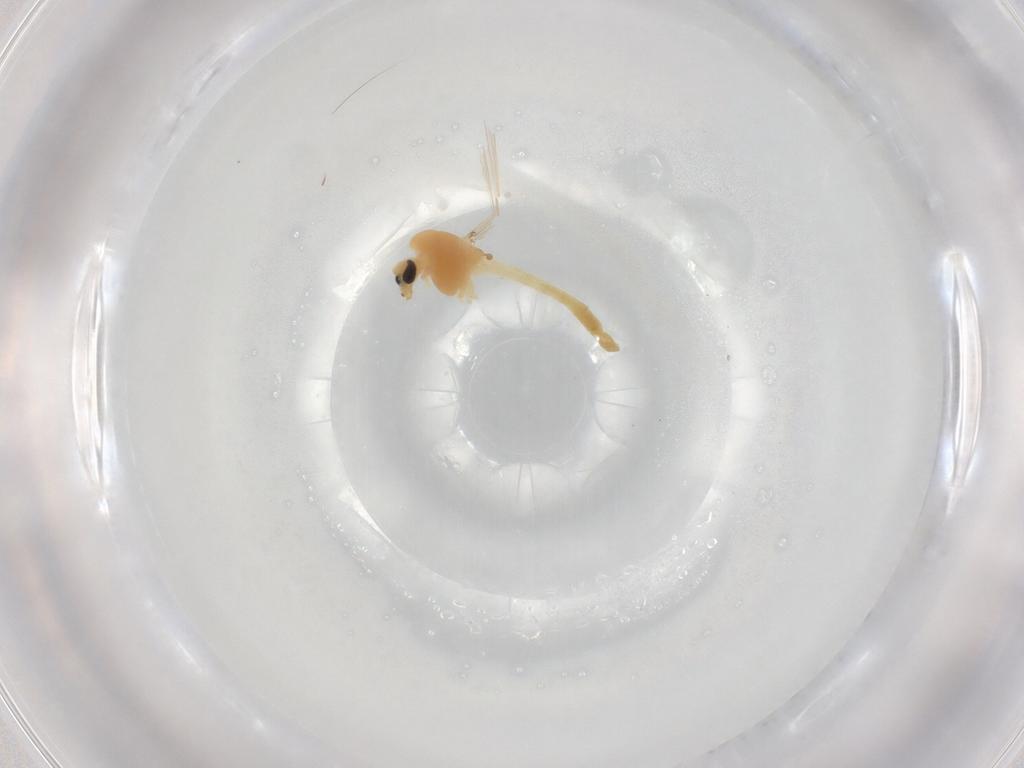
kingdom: Animalia
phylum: Arthropoda
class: Insecta
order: Diptera
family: Chironomidae
